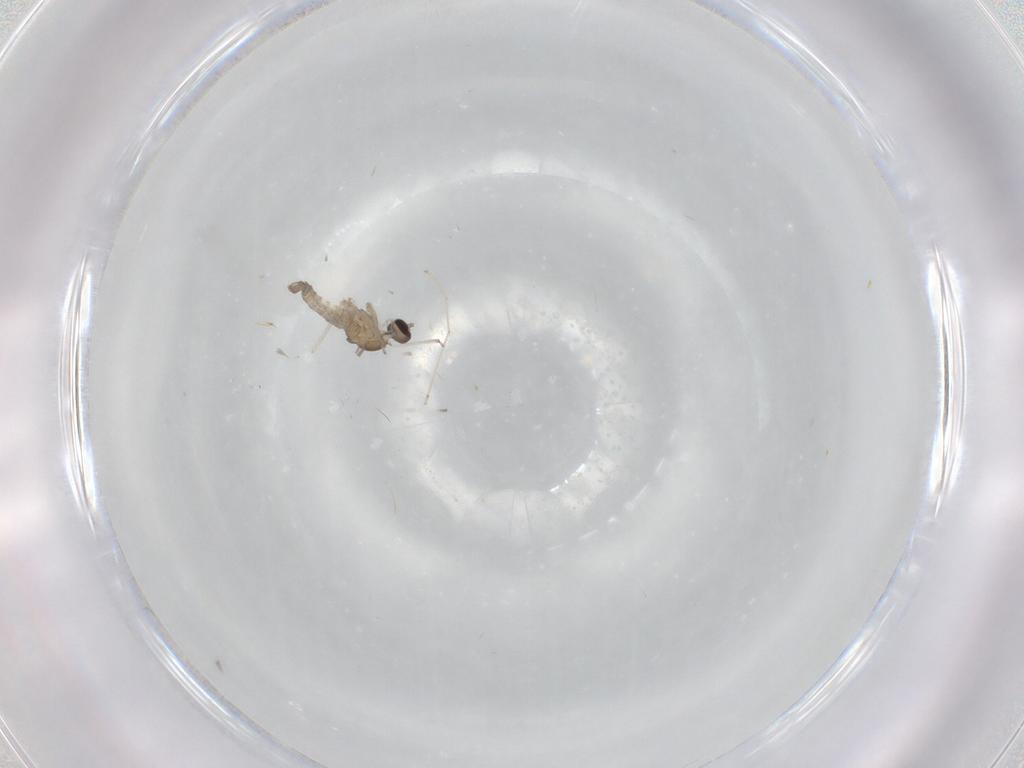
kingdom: Animalia
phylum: Arthropoda
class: Insecta
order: Diptera
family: Cecidomyiidae
